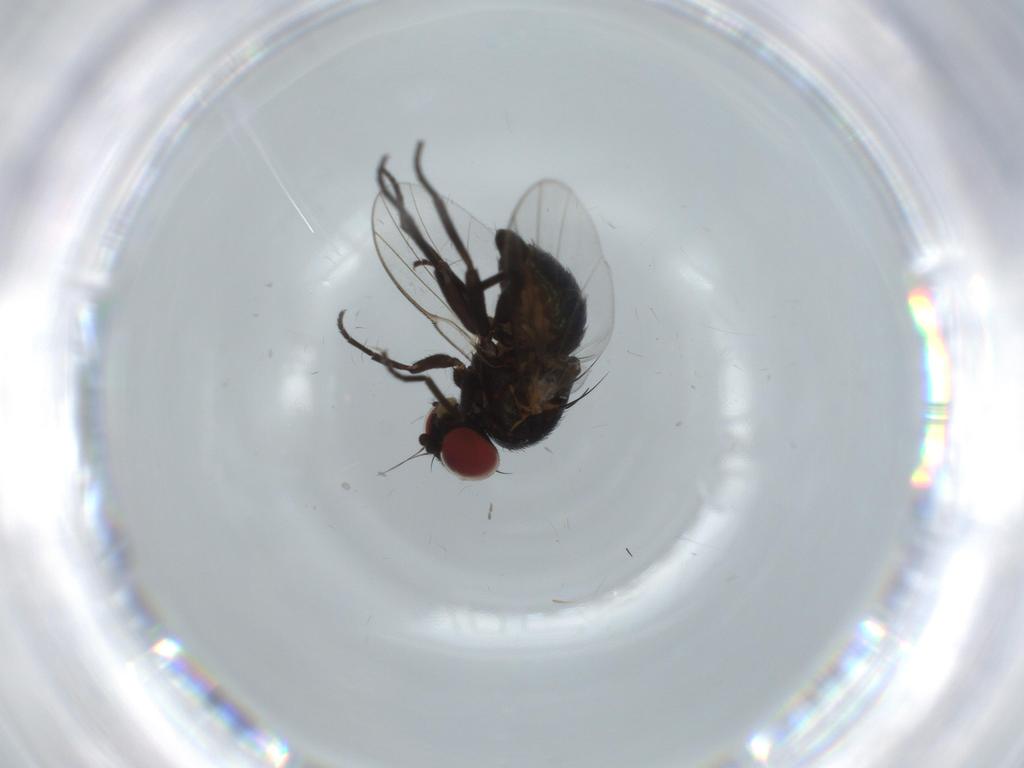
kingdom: Animalia
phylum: Arthropoda
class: Insecta
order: Diptera
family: Agromyzidae
